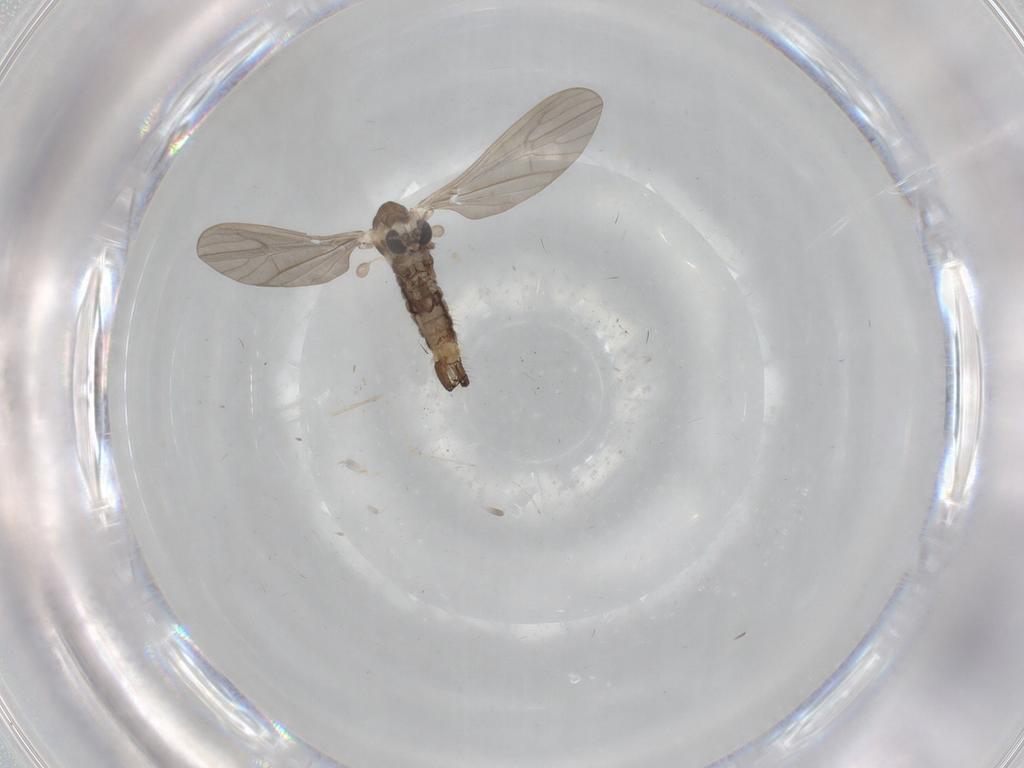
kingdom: Animalia
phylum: Arthropoda
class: Insecta
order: Diptera
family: Limoniidae
